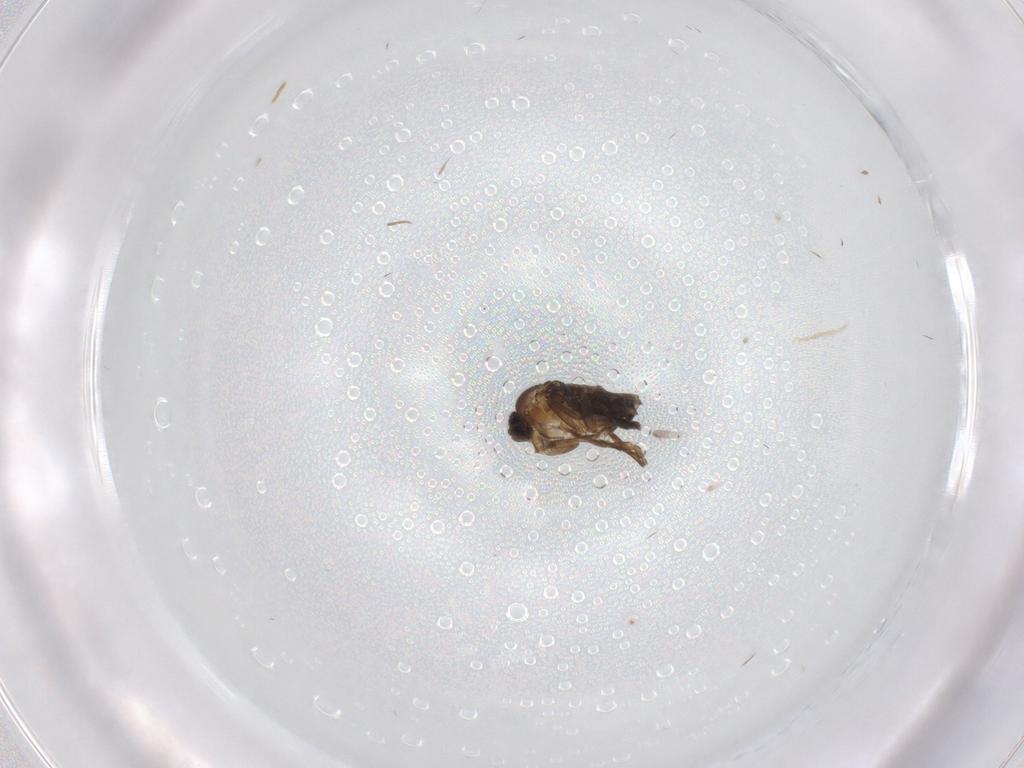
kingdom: Animalia
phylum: Arthropoda
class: Insecta
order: Diptera
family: Phoridae
